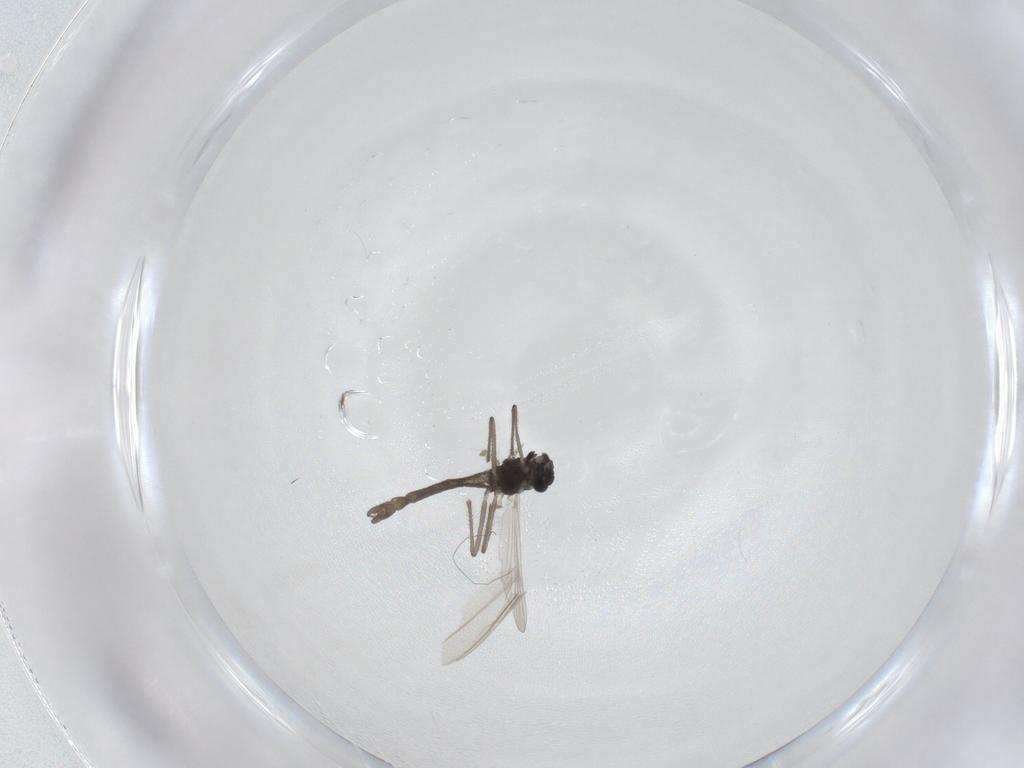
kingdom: Animalia
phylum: Arthropoda
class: Insecta
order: Diptera
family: Chironomidae
